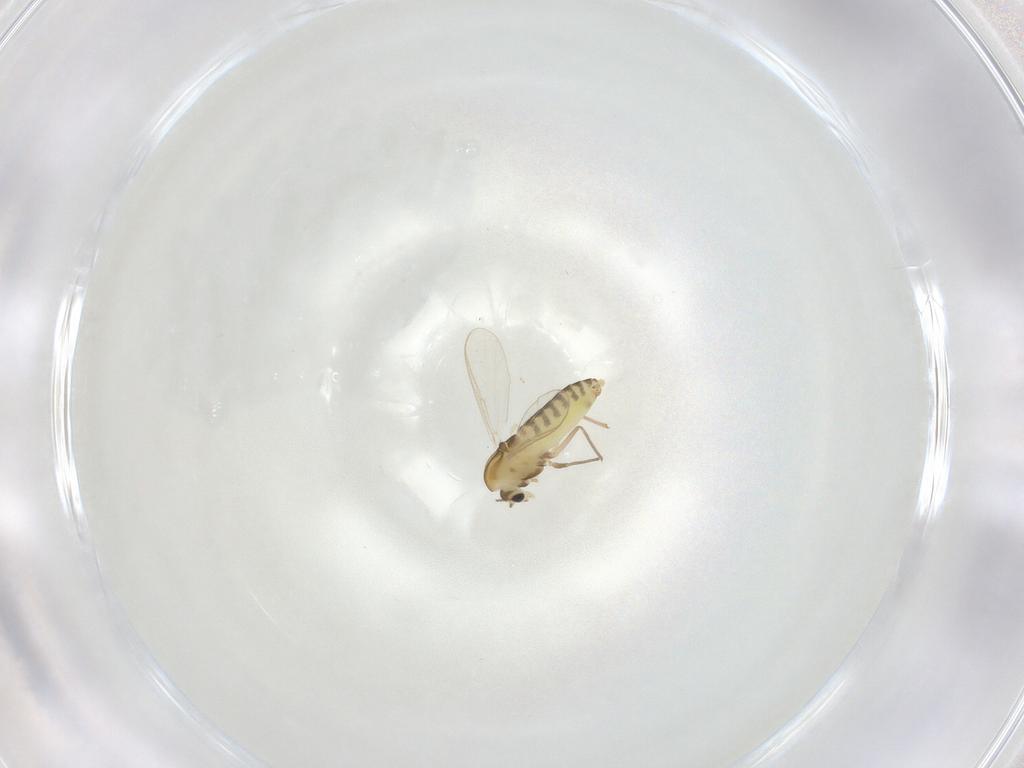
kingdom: Animalia
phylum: Arthropoda
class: Insecta
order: Diptera
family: Chironomidae
